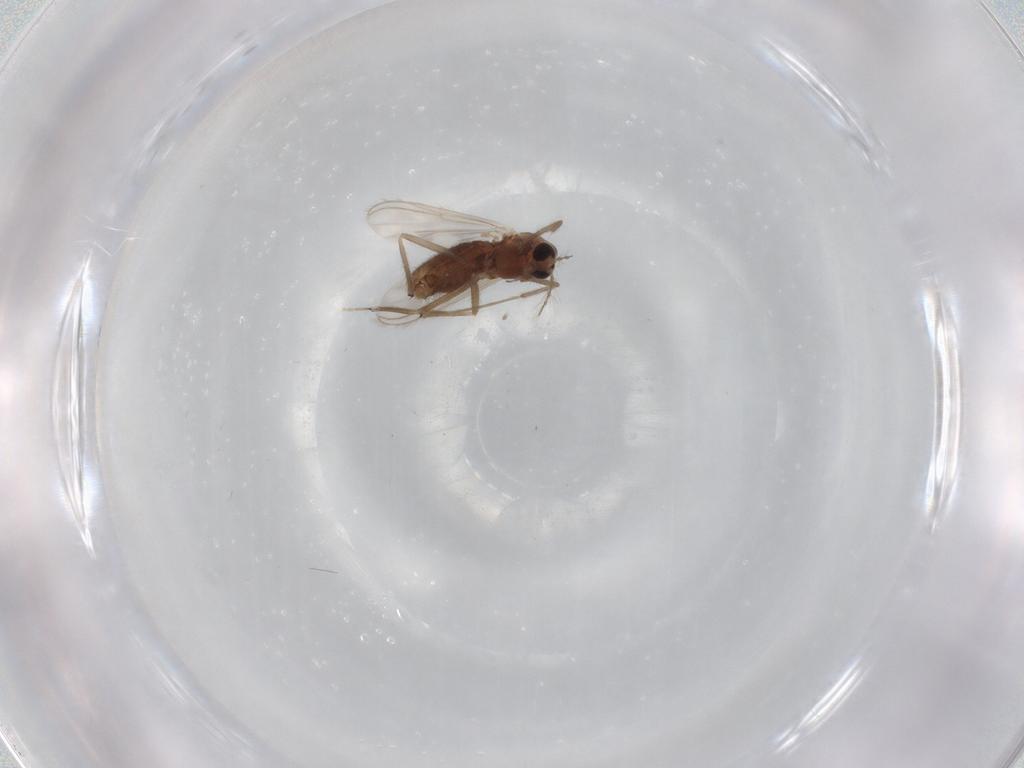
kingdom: Animalia
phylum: Arthropoda
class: Insecta
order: Diptera
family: Chironomidae
